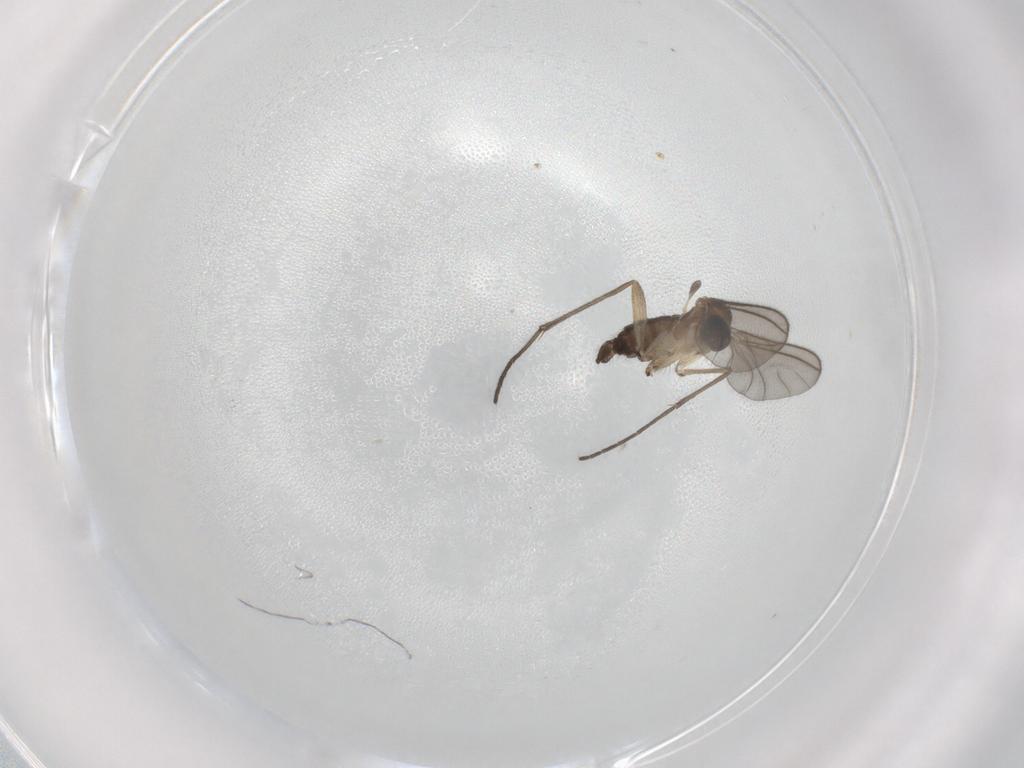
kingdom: Animalia
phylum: Arthropoda
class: Insecta
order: Diptera
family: Sciaridae
